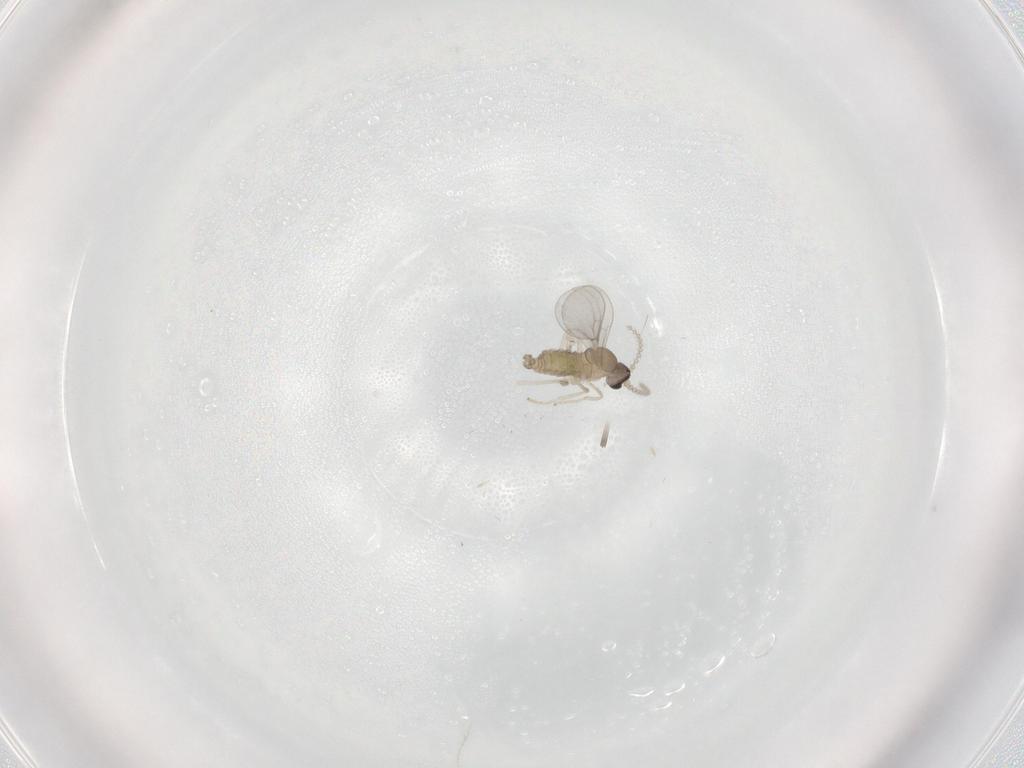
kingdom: Animalia
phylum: Arthropoda
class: Insecta
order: Diptera
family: Cecidomyiidae
